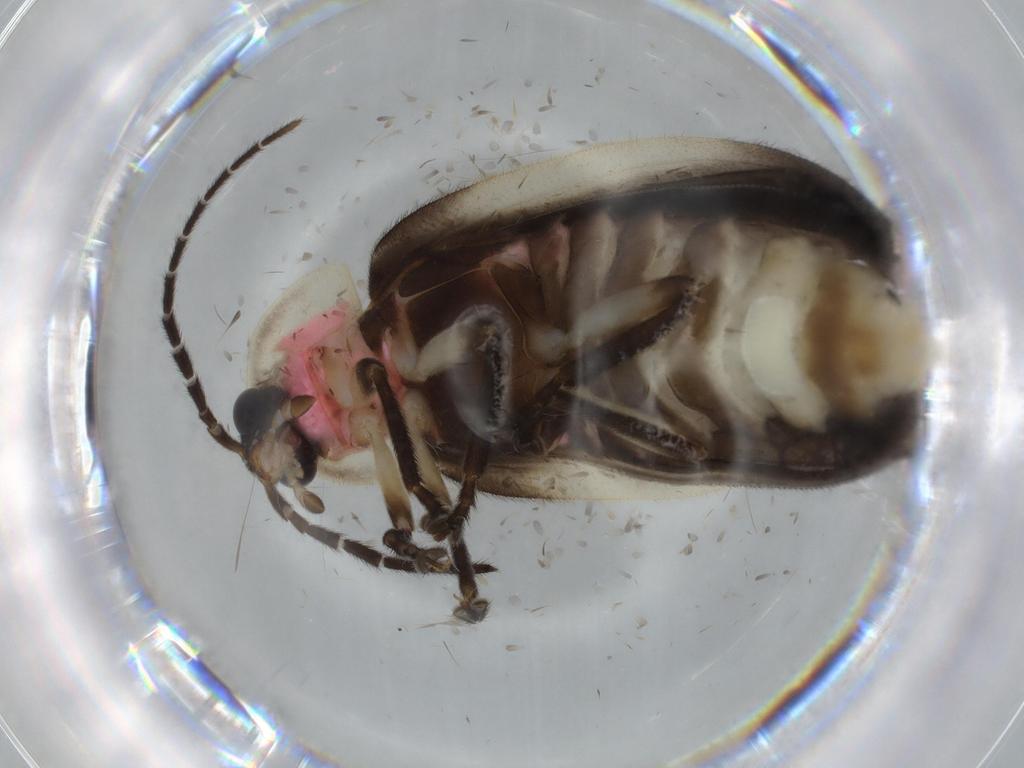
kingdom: Animalia
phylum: Arthropoda
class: Insecta
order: Coleoptera
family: Lampyridae
